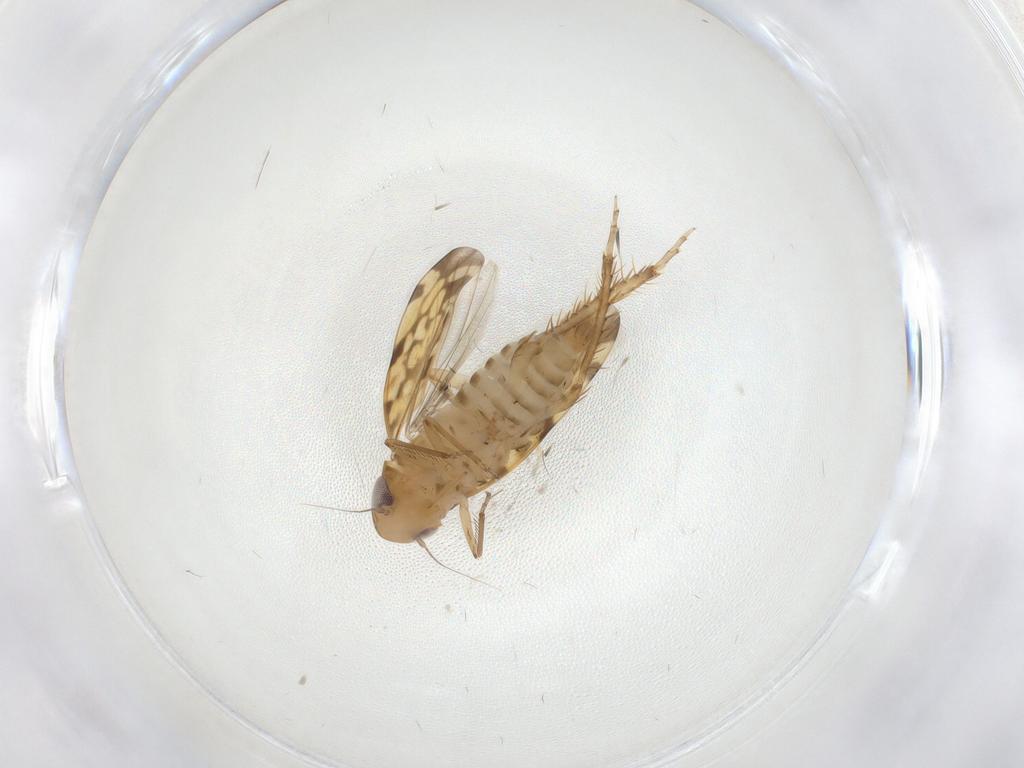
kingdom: Animalia
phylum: Arthropoda
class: Insecta
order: Hemiptera
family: Cicadellidae
